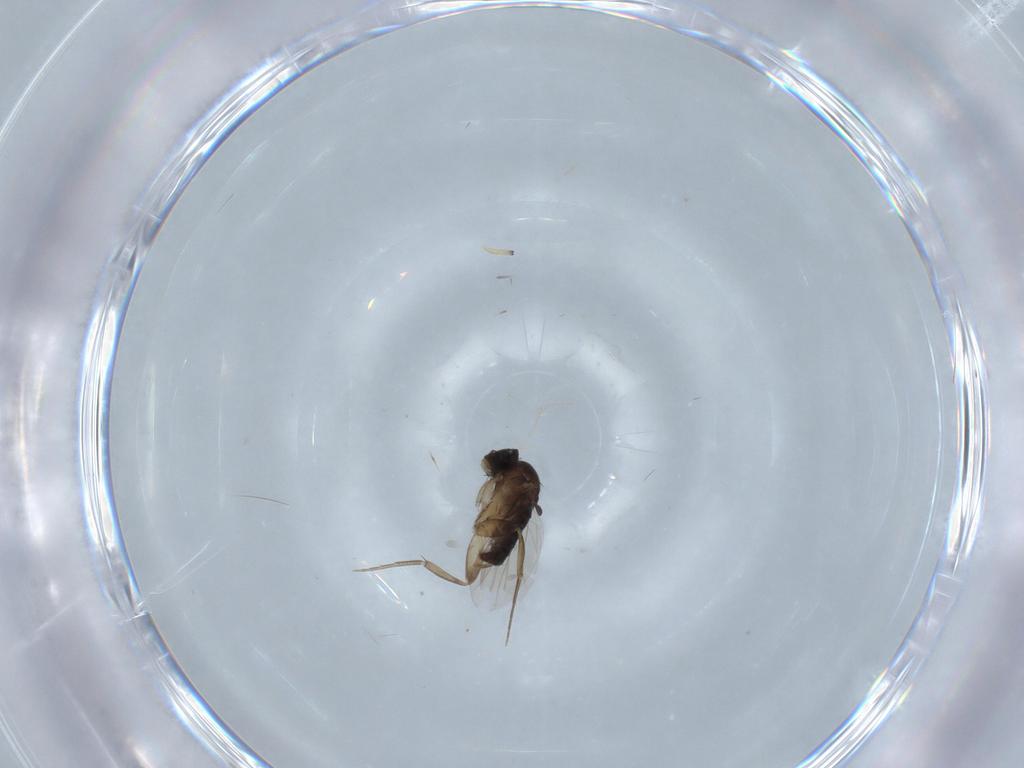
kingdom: Animalia
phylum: Arthropoda
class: Insecta
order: Diptera
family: Phoridae
